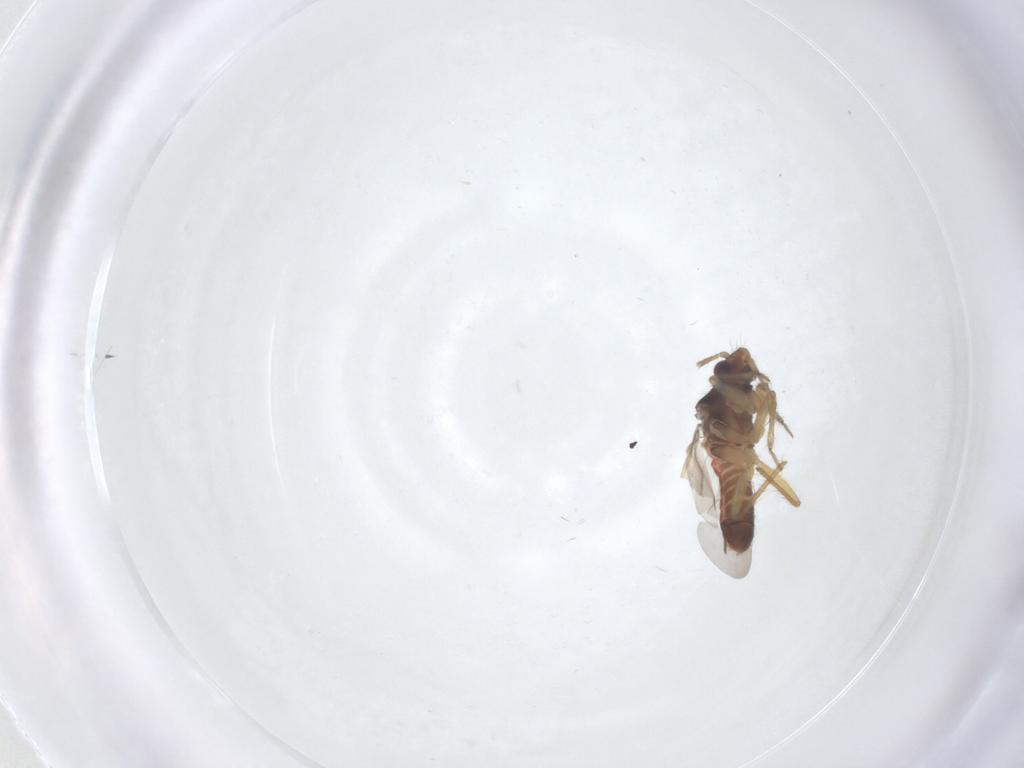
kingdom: Animalia
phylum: Arthropoda
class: Insecta
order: Hemiptera
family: Ceratocombidae
